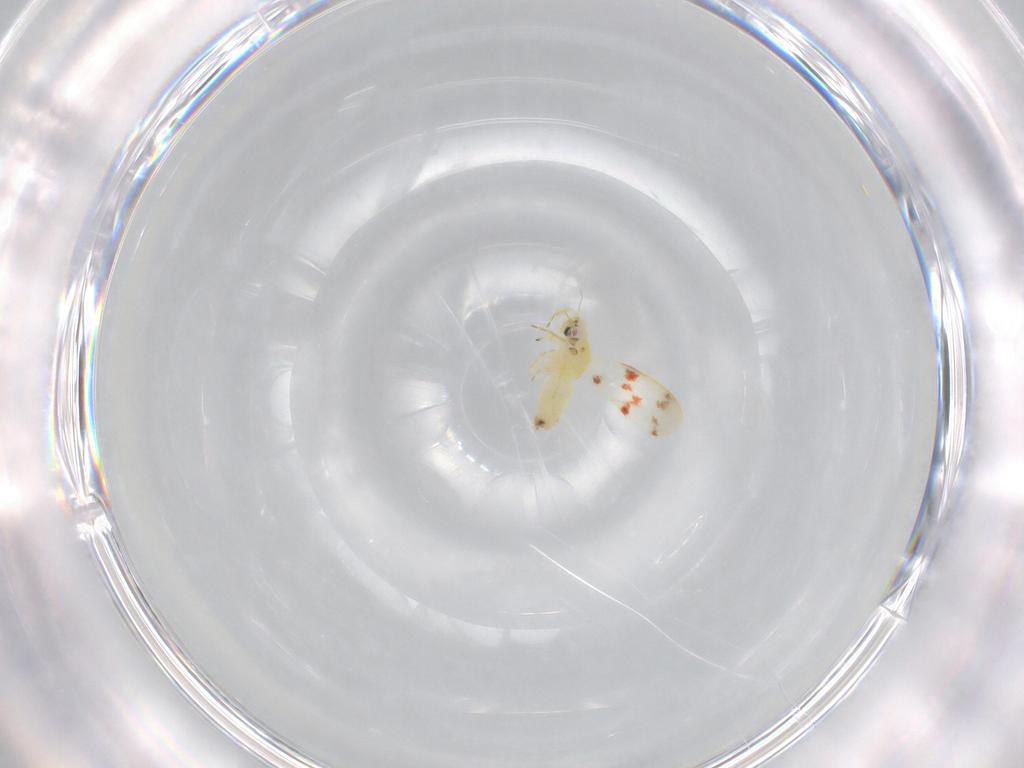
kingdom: Animalia
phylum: Arthropoda
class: Insecta
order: Hemiptera
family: Aleyrodidae
